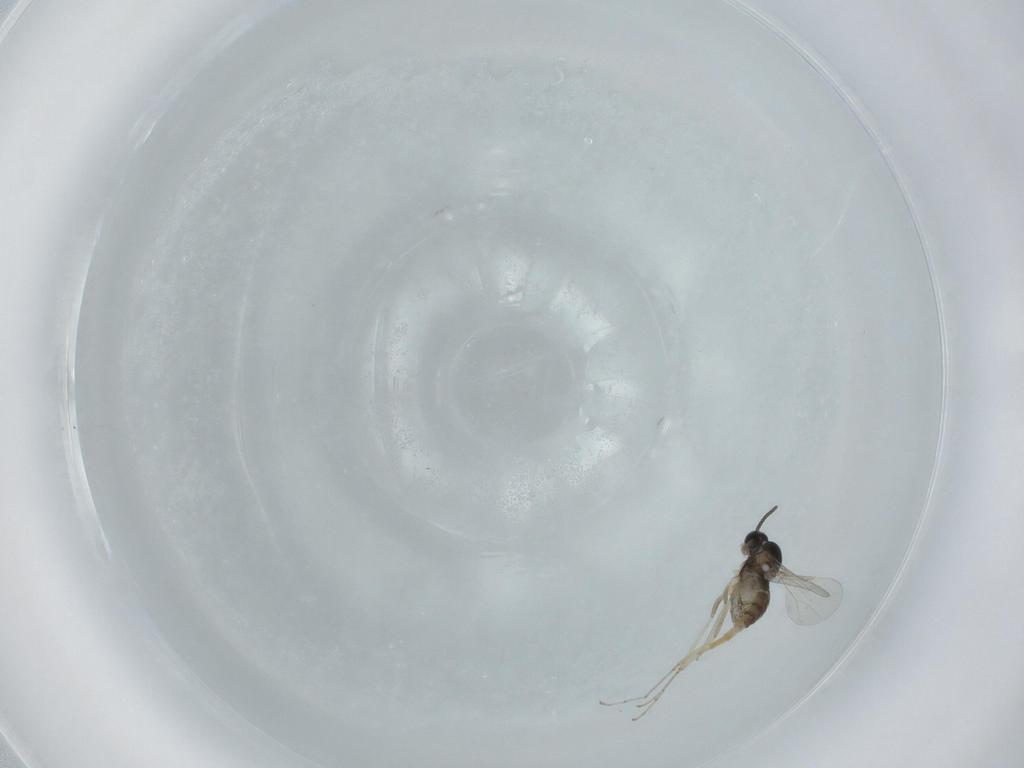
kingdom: Animalia
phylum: Arthropoda
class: Insecta
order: Diptera
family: Cecidomyiidae
